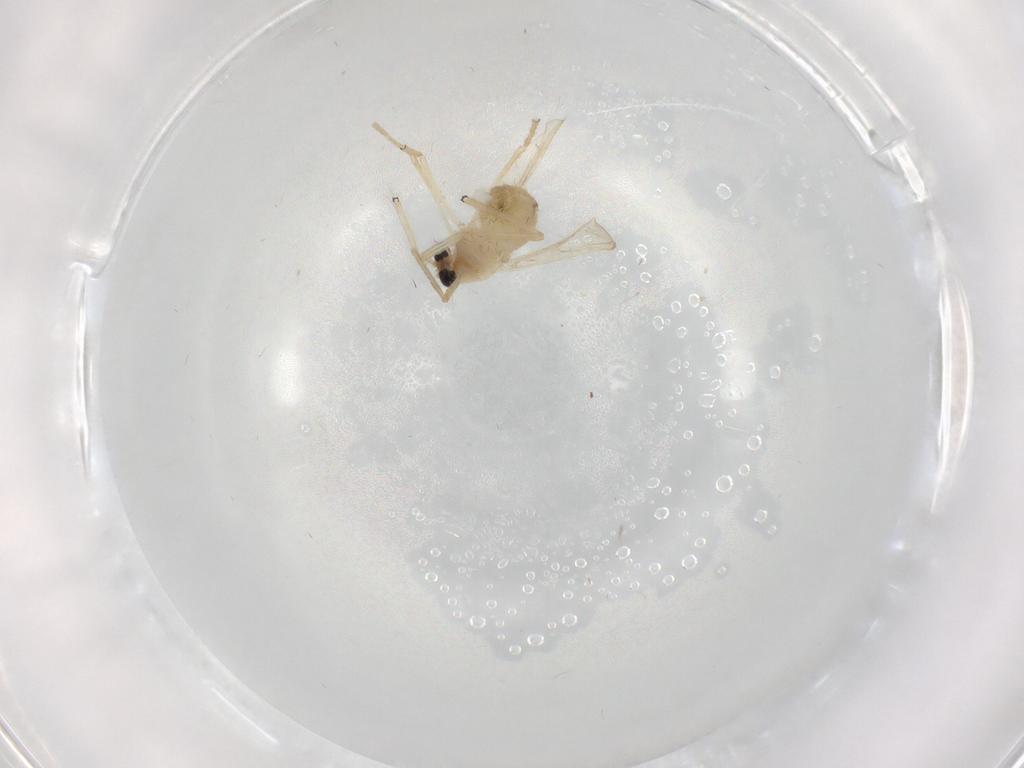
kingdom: Animalia
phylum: Arthropoda
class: Insecta
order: Diptera
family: Chironomidae
